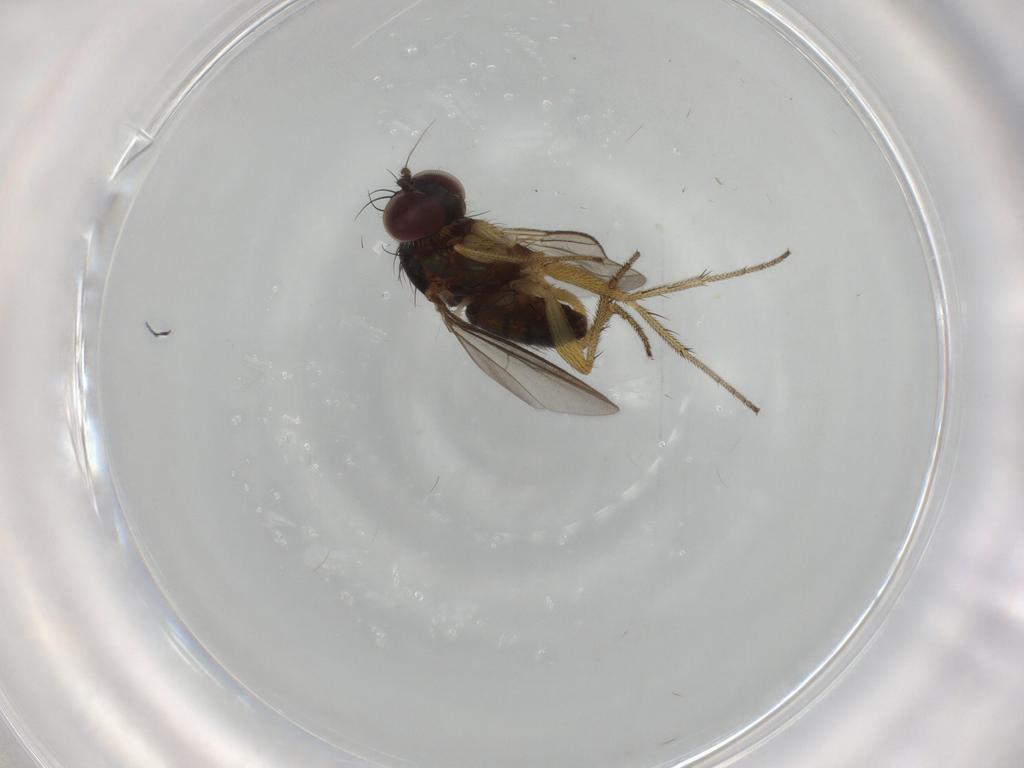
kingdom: Animalia
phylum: Arthropoda
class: Insecta
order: Diptera
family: Dolichopodidae
